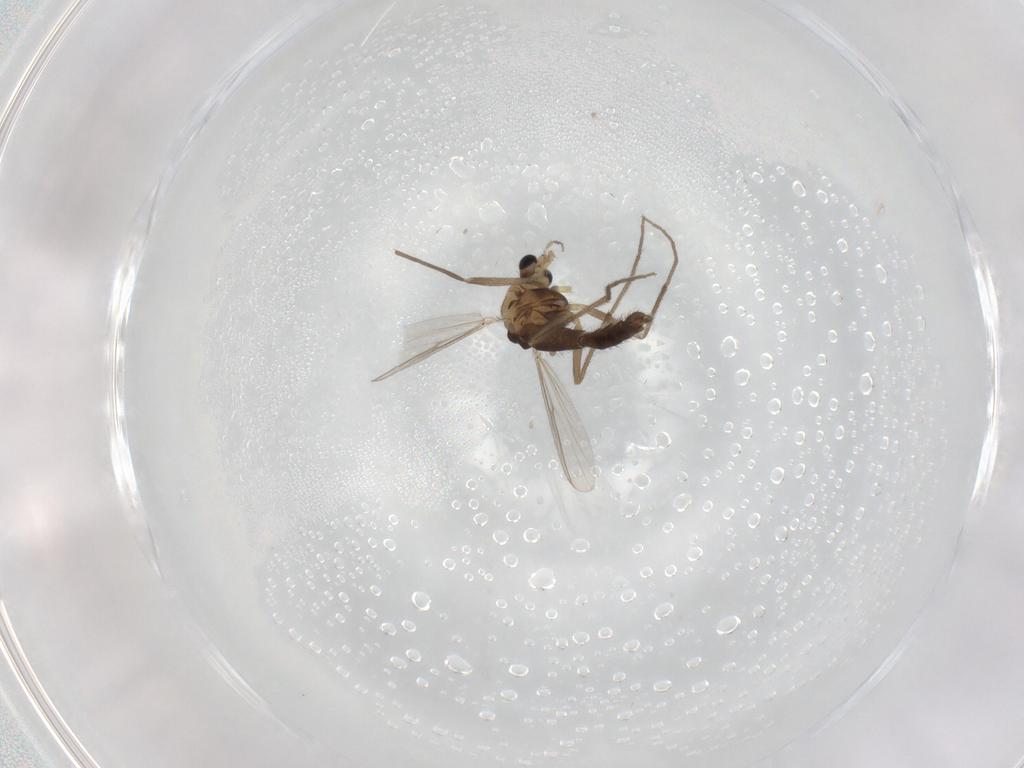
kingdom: Animalia
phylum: Arthropoda
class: Insecta
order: Diptera
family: Chironomidae
